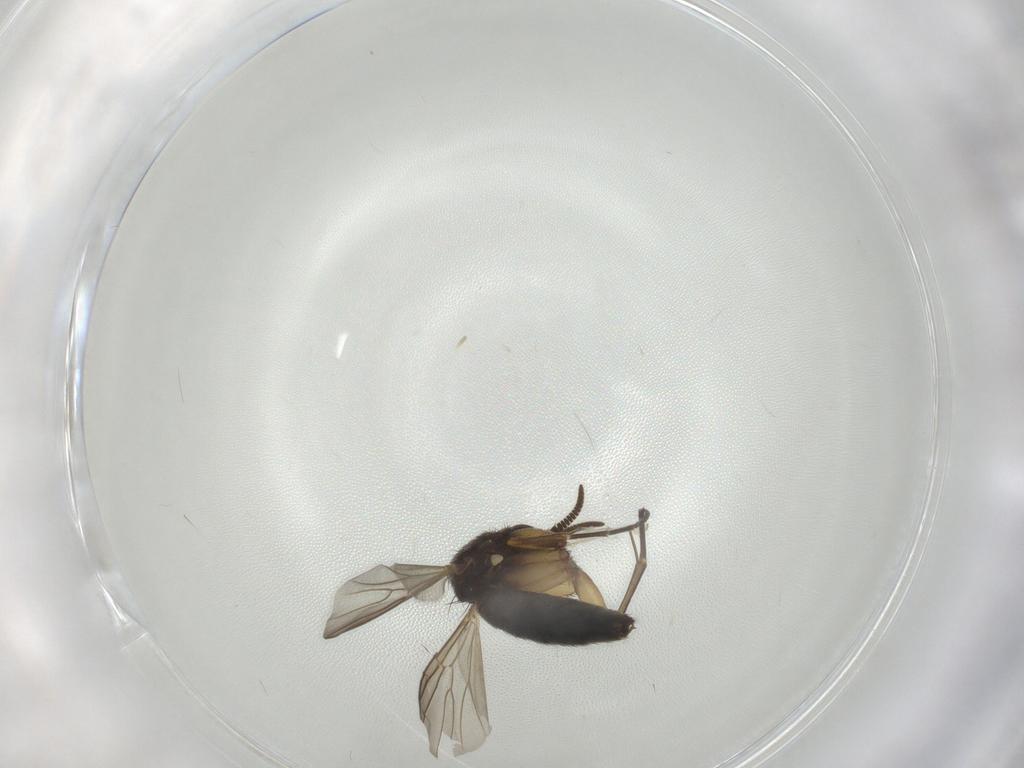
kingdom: Animalia
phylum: Arthropoda
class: Insecta
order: Diptera
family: Mycetophilidae
